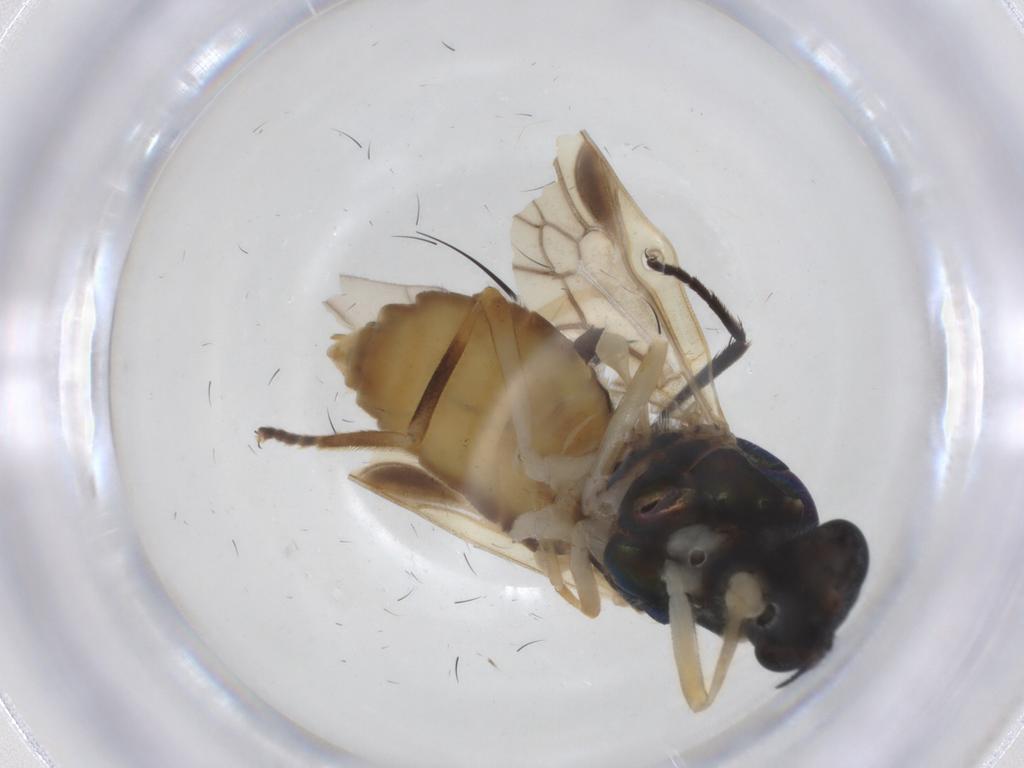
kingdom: Animalia
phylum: Arthropoda
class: Insecta
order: Diptera
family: Stratiomyidae
